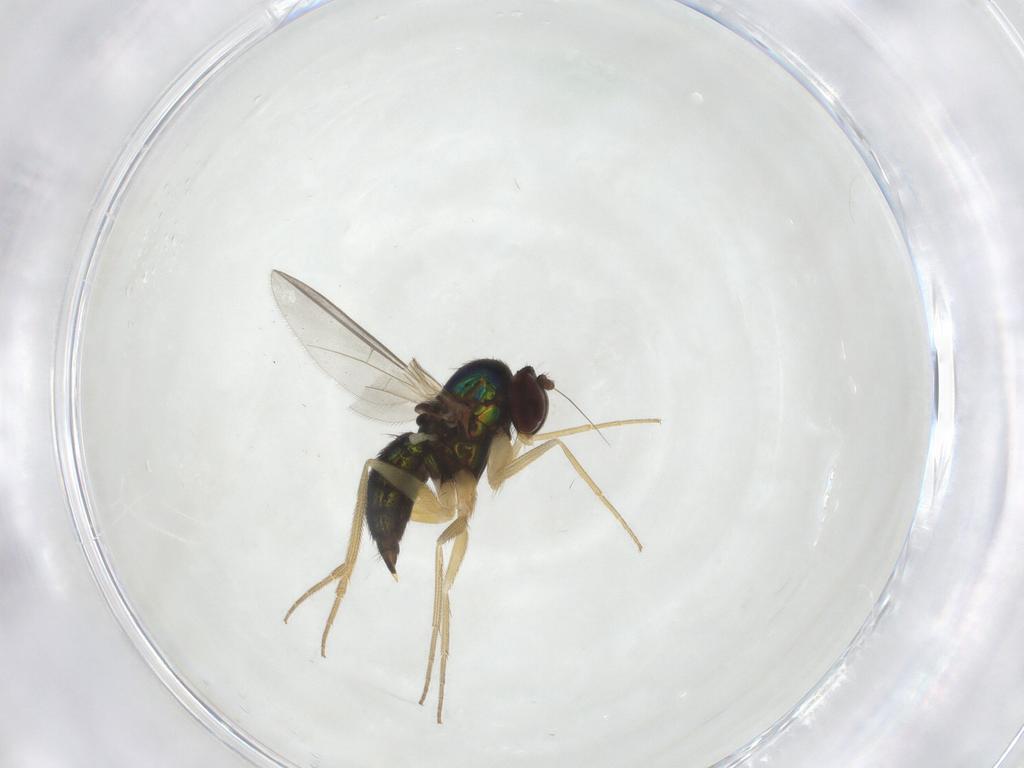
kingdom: Animalia
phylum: Arthropoda
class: Insecta
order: Diptera
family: Dolichopodidae
